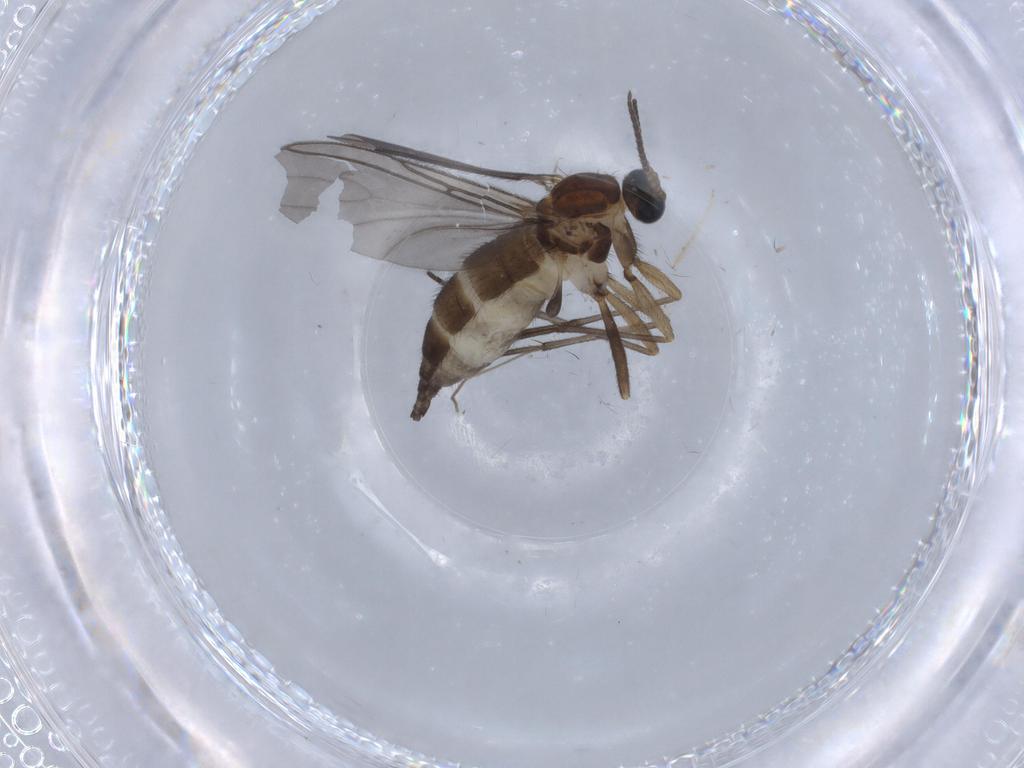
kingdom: Animalia
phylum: Arthropoda
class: Insecta
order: Diptera
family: Sciaridae
